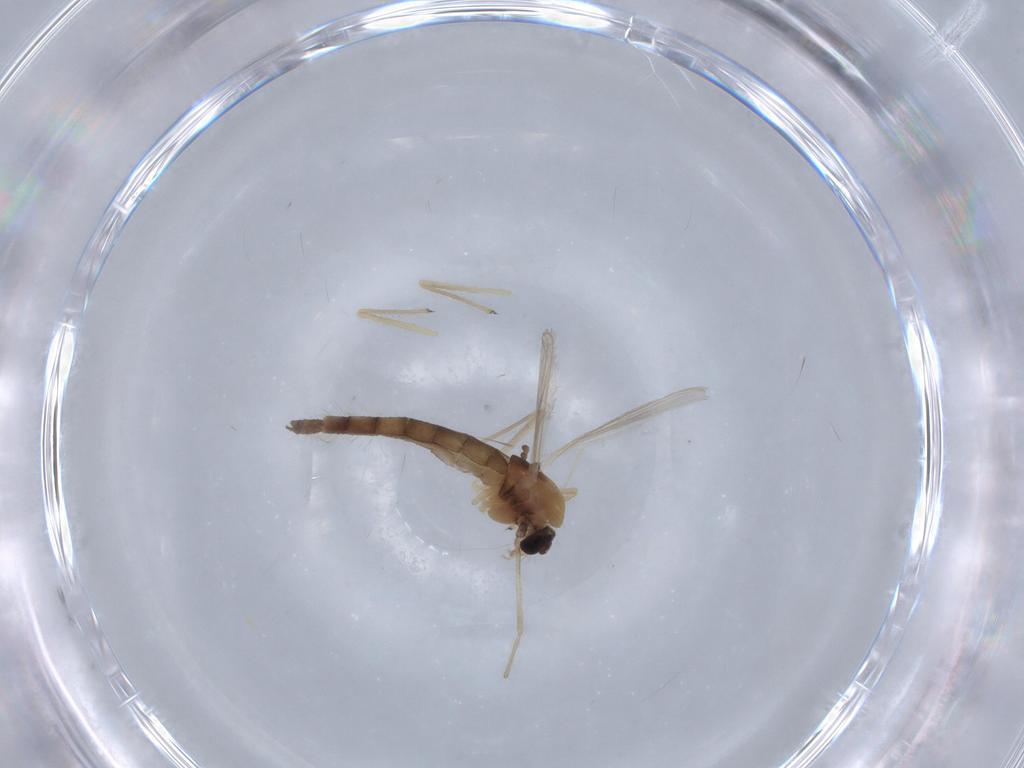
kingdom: Animalia
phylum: Arthropoda
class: Insecta
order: Diptera
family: Chironomidae
